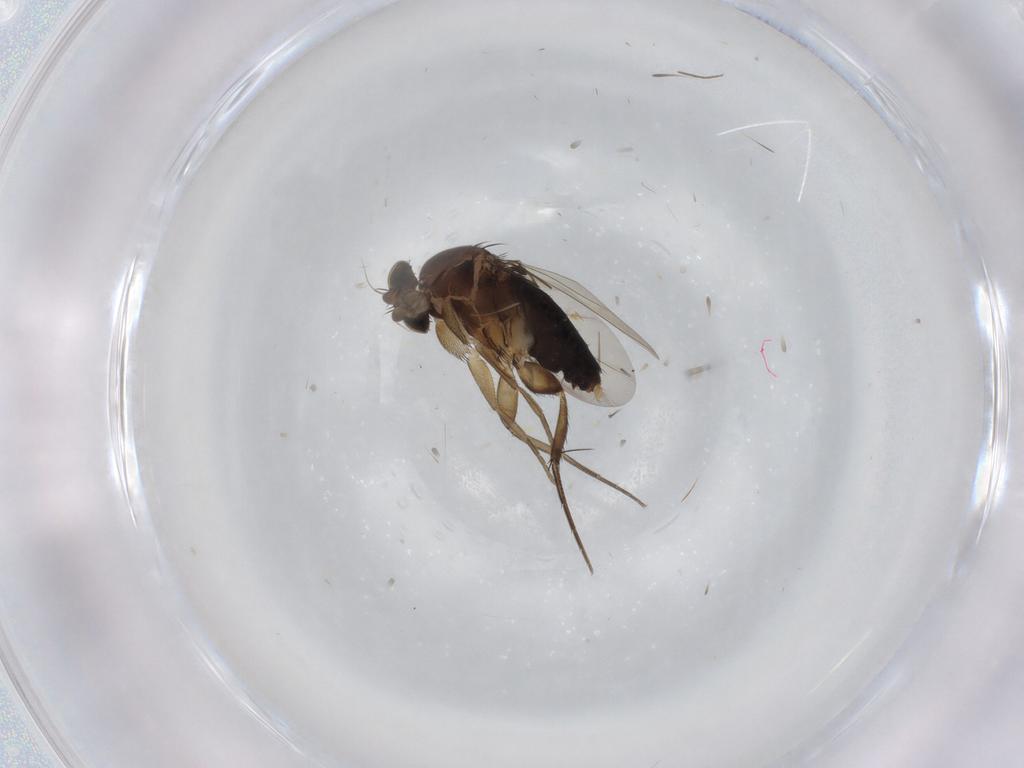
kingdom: Animalia
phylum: Arthropoda
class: Insecta
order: Diptera
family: Phoridae
